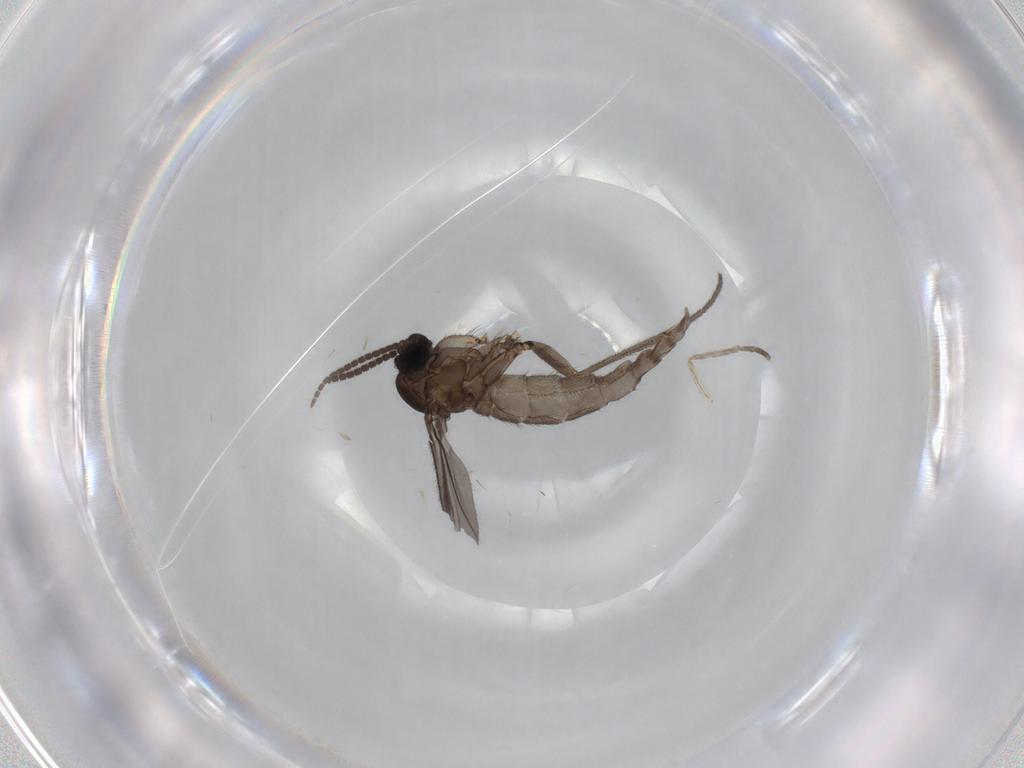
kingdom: Animalia
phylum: Arthropoda
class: Insecta
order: Diptera
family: Sciaridae
